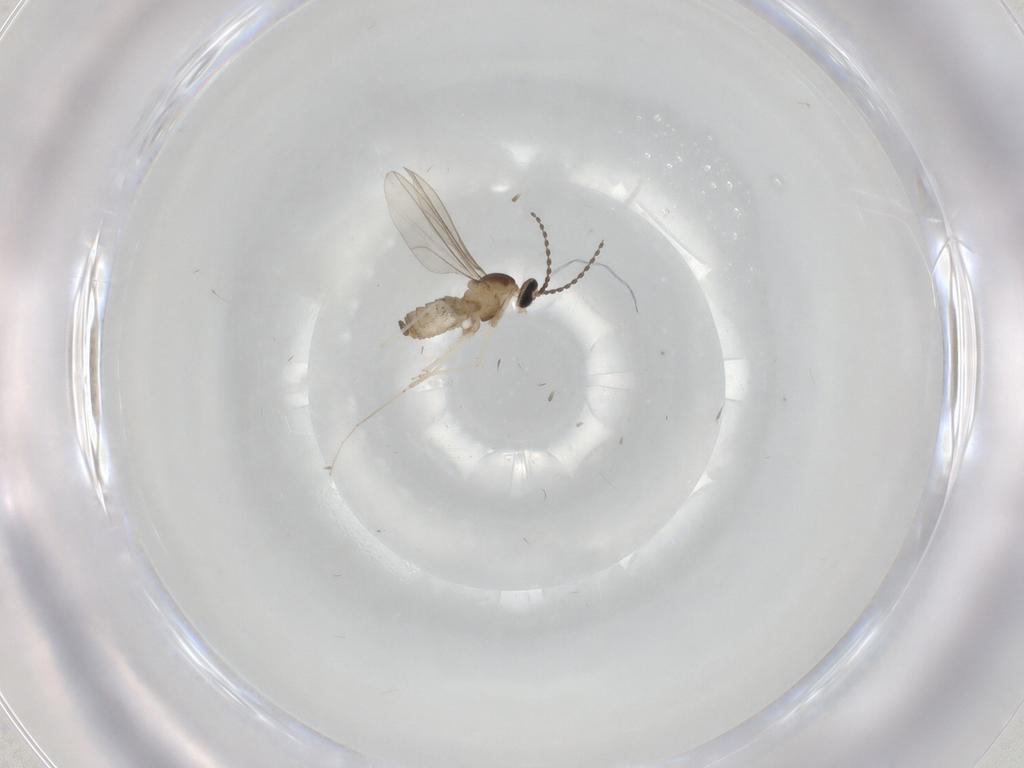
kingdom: Animalia
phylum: Arthropoda
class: Insecta
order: Diptera
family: Cecidomyiidae
